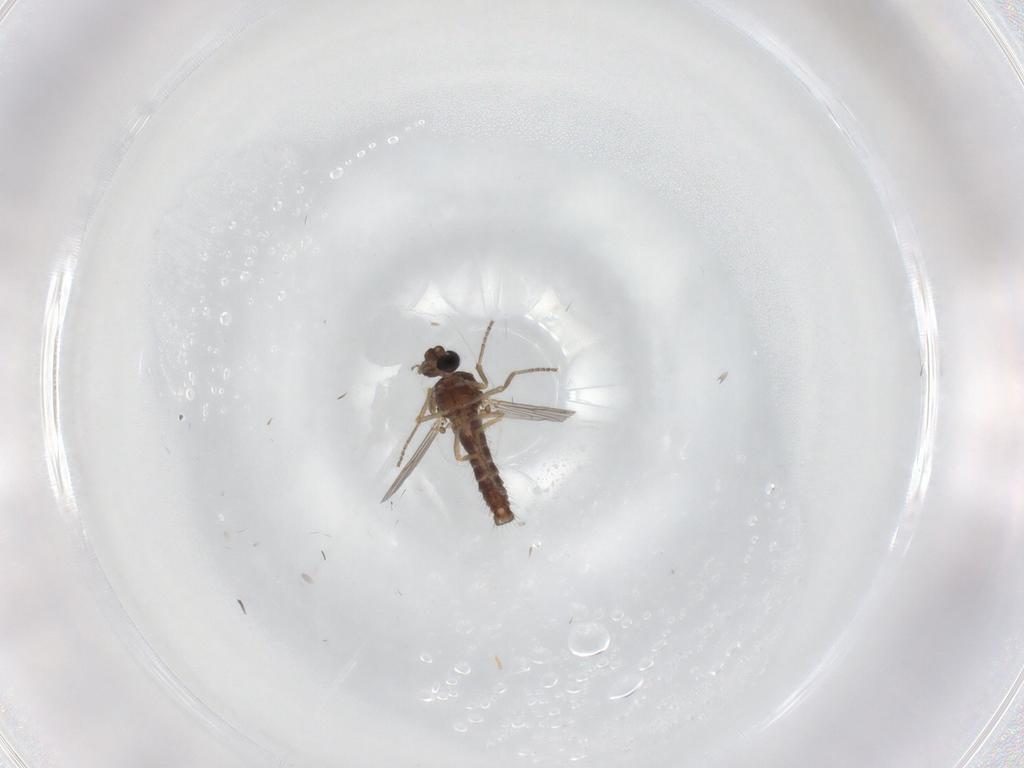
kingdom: Animalia
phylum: Arthropoda
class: Insecta
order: Diptera
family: Ceratopogonidae
